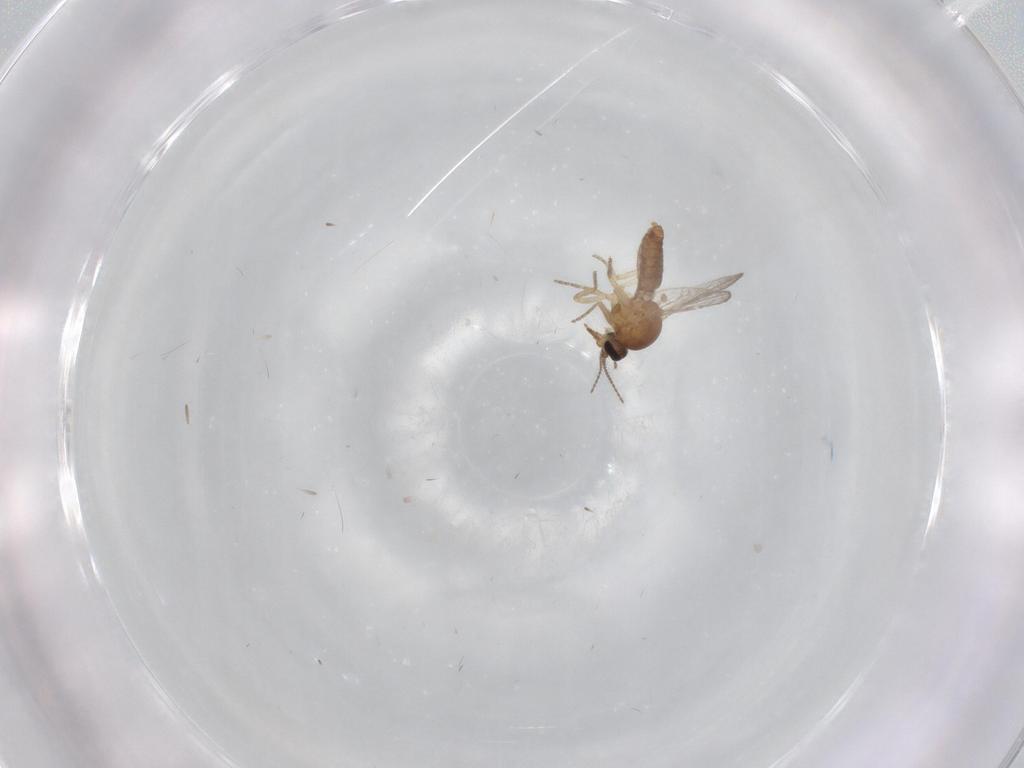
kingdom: Animalia
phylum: Arthropoda
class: Insecta
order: Diptera
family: Ceratopogonidae
